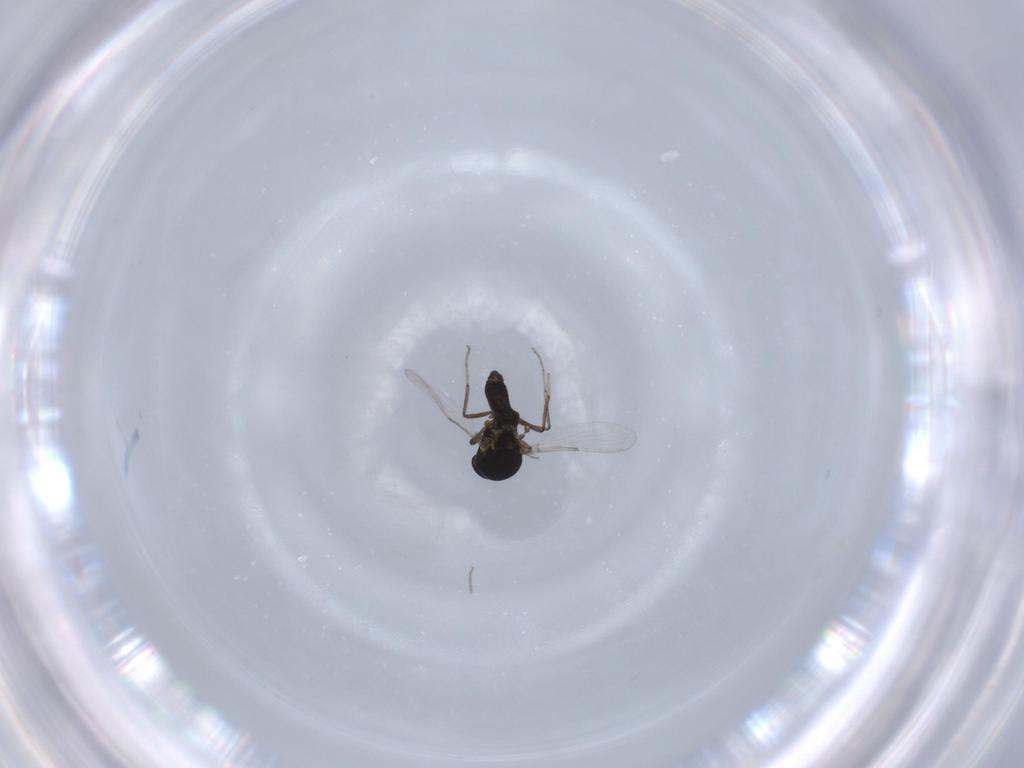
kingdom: Animalia
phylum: Arthropoda
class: Insecta
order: Diptera
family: Ceratopogonidae
